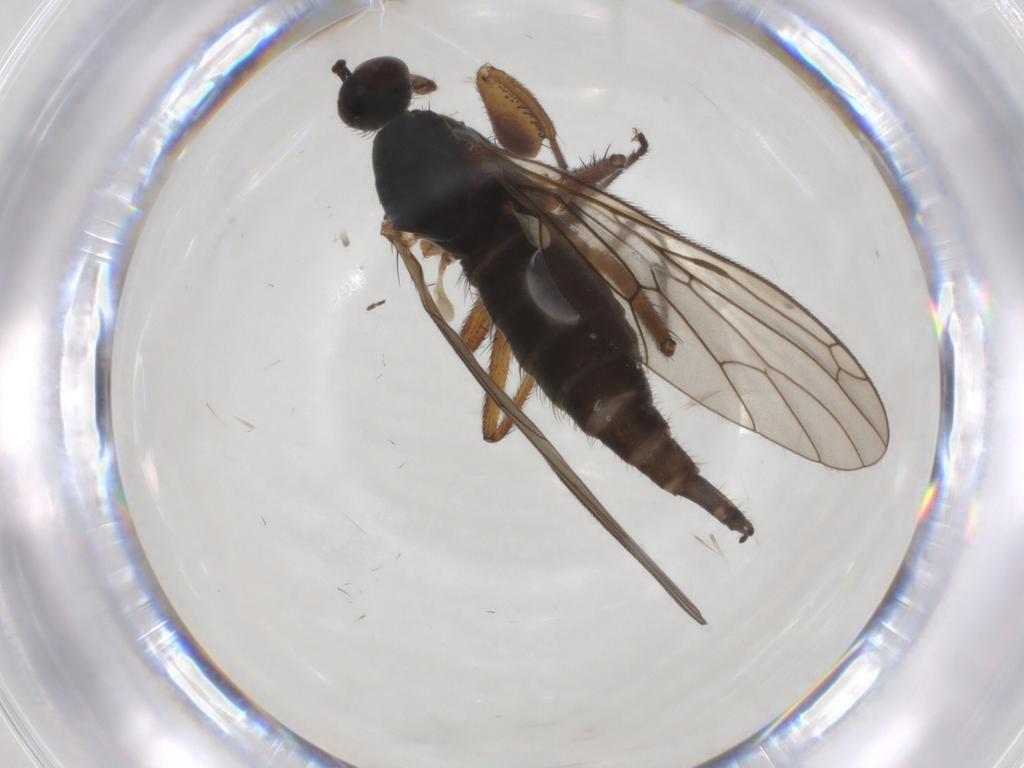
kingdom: Animalia
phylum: Arthropoda
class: Insecta
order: Diptera
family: Empididae
